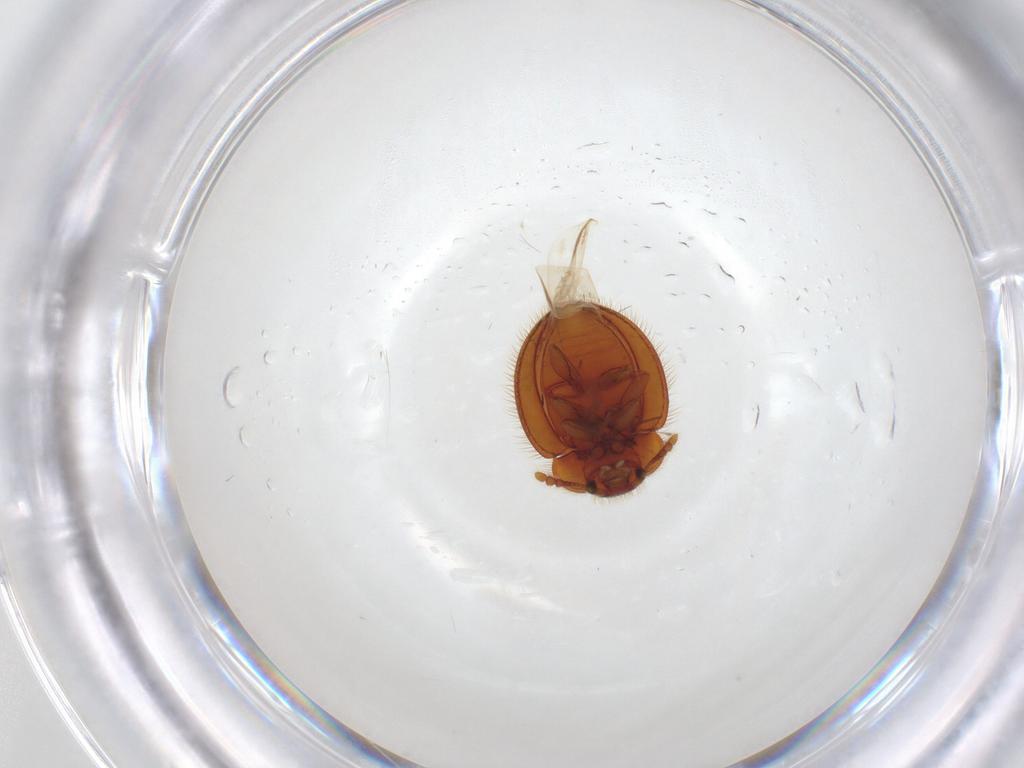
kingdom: Animalia
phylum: Arthropoda
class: Insecta
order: Coleoptera
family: Anamorphidae
